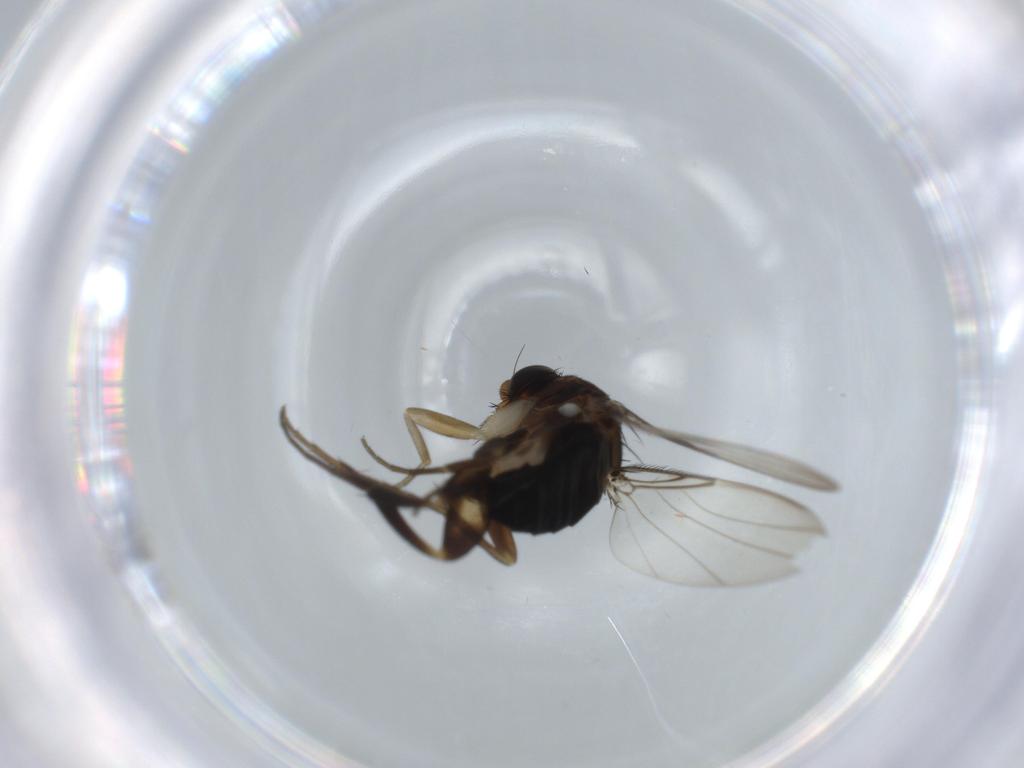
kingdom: Animalia
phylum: Arthropoda
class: Insecta
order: Diptera
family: Phoridae
